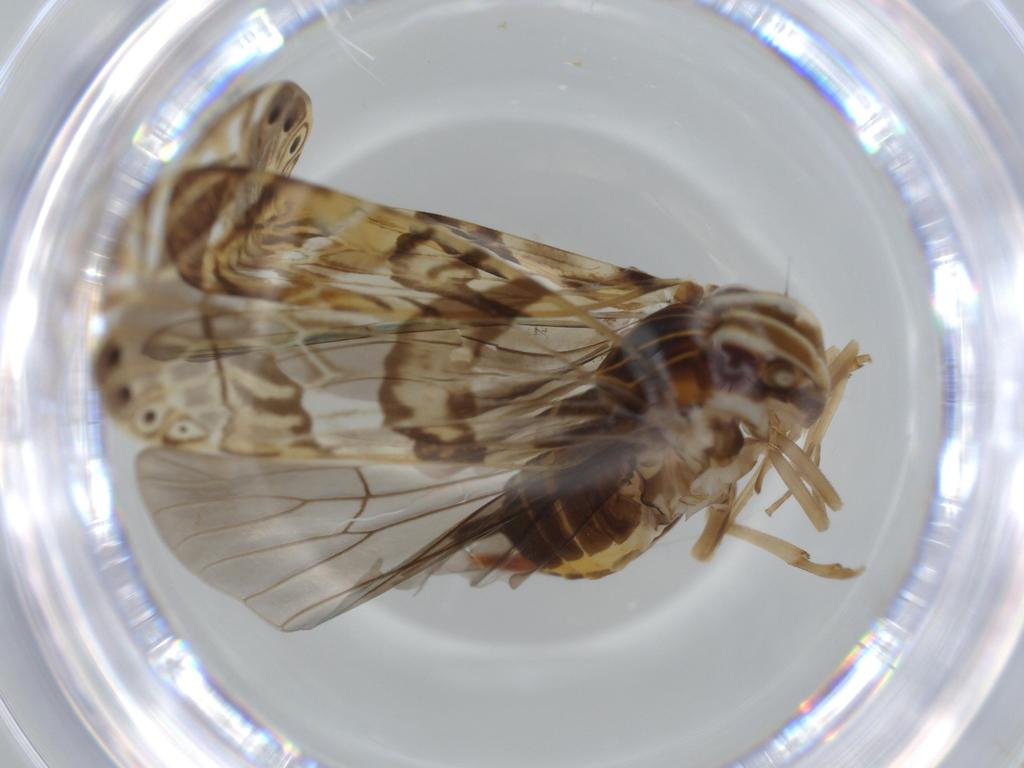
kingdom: Animalia
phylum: Arthropoda
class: Insecta
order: Hemiptera
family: Cixiidae
